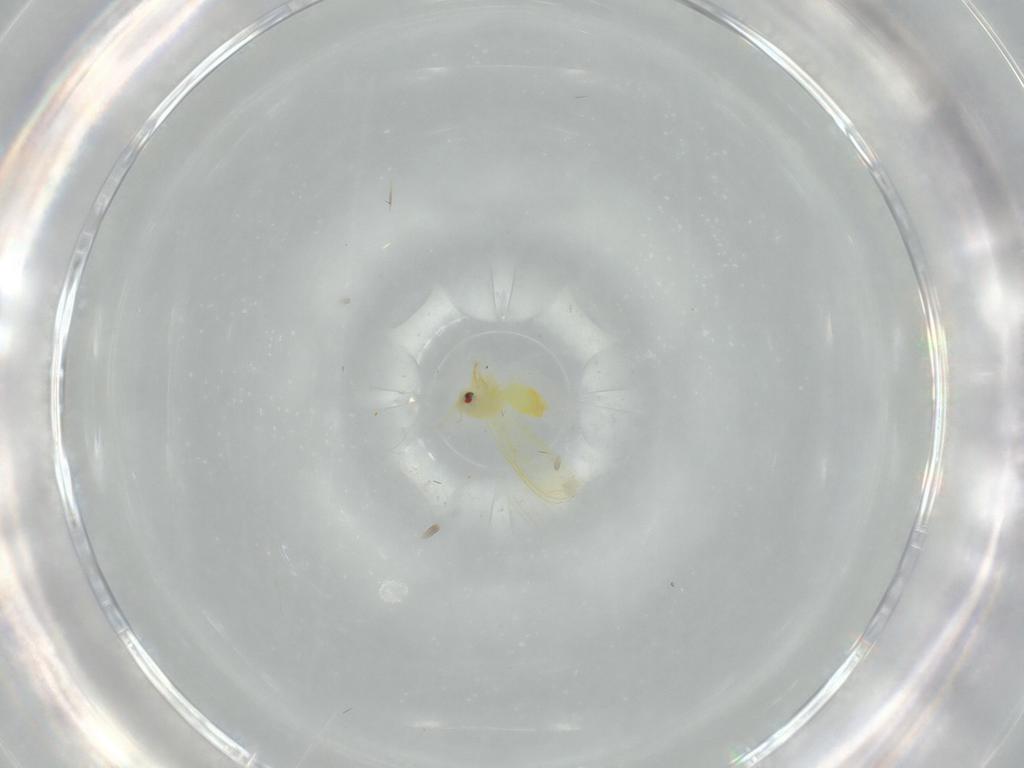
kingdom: Animalia
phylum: Arthropoda
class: Insecta
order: Hemiptera
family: Aleyrodidae
